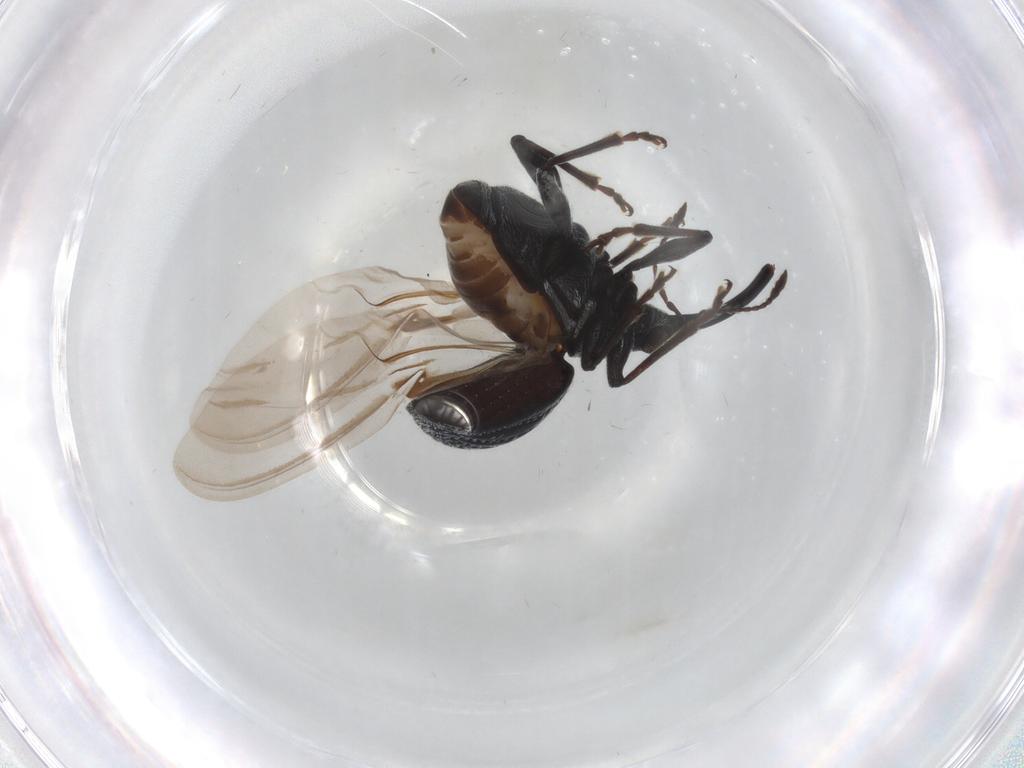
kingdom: Animalia
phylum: Arthropoda
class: Insecta
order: Coleoptera
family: Brentidae
